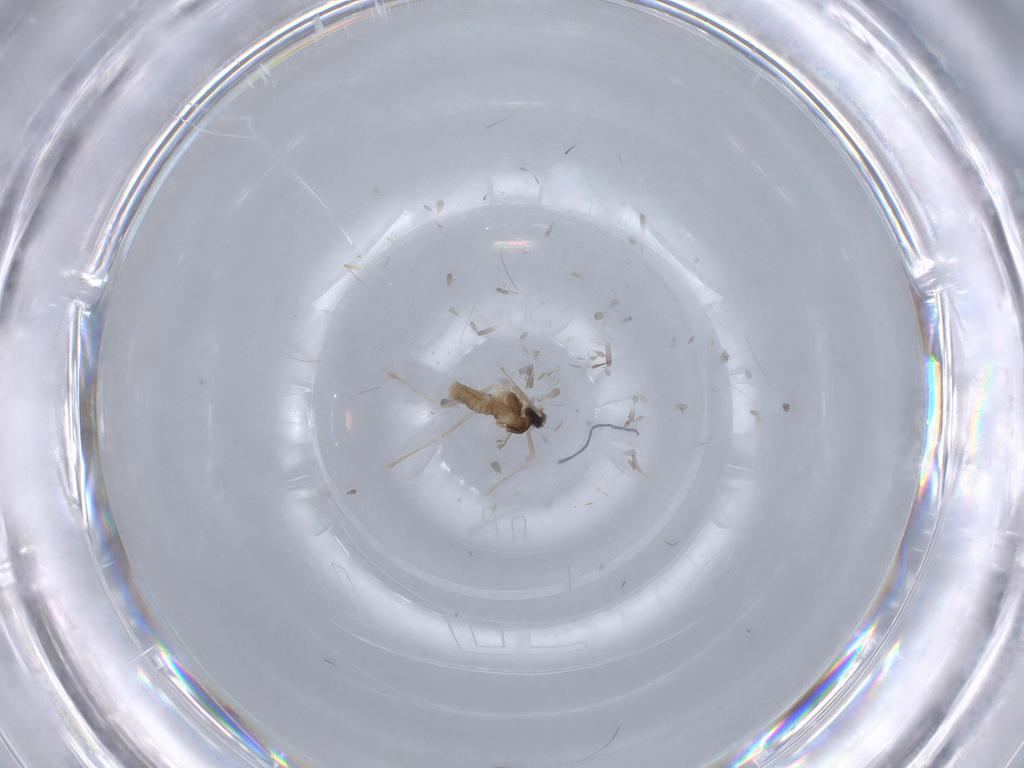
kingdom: Animalia
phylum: Arthropoda
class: Insecta
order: Diptera
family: Cecidomyiidae
